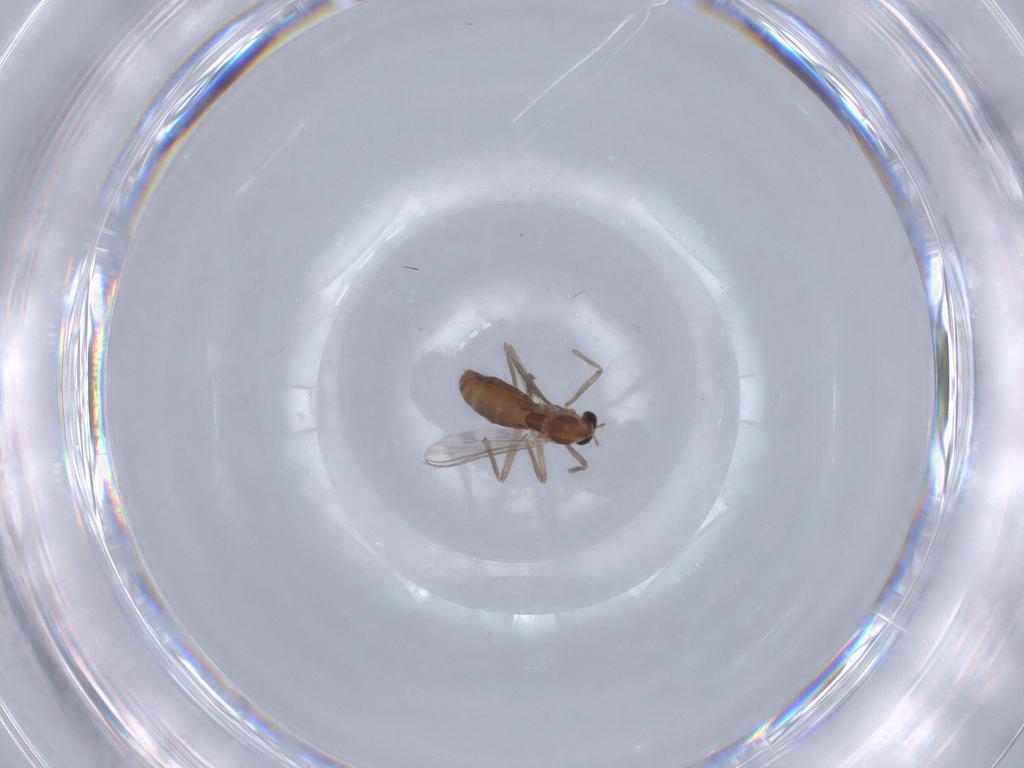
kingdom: Animalia
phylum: Arthropoda
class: Insecta
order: Diptera
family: Chironomidae
